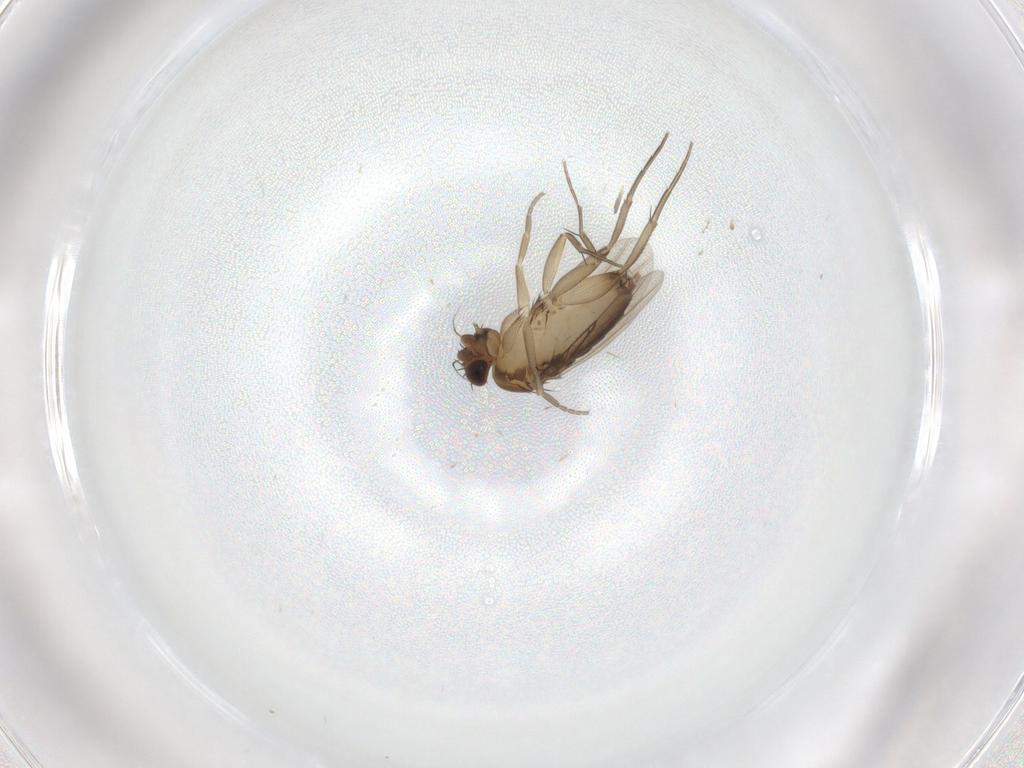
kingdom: Animalia
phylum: Arthropoda
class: Insecta
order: Diptera
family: Phoridae
